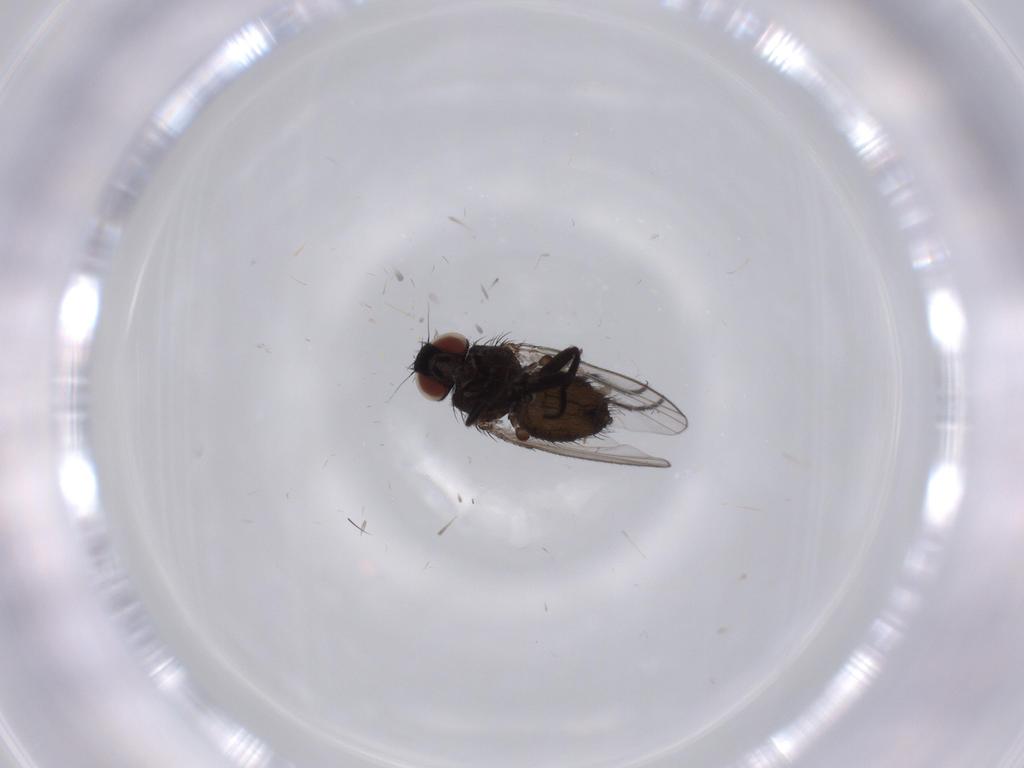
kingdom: Animalia
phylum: Arthropoda
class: Insecta
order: Diptera
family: Milichiidae
